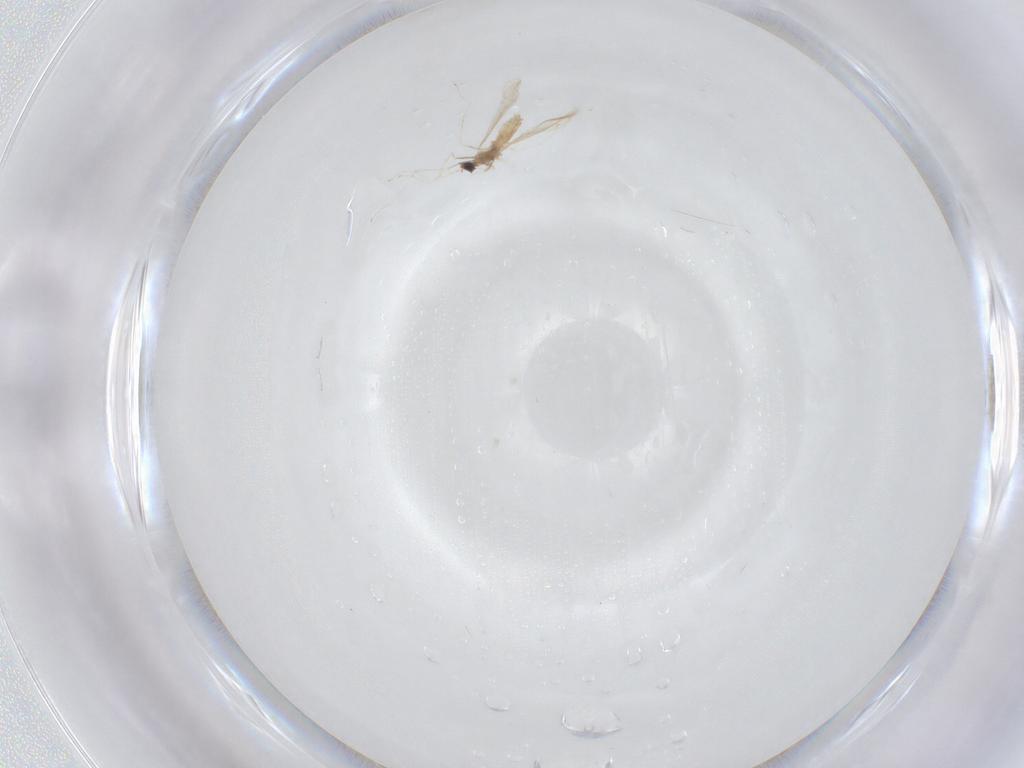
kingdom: Animalia
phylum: Arthropoda
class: Insecta
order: Diptera
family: Cecidomyiidae
